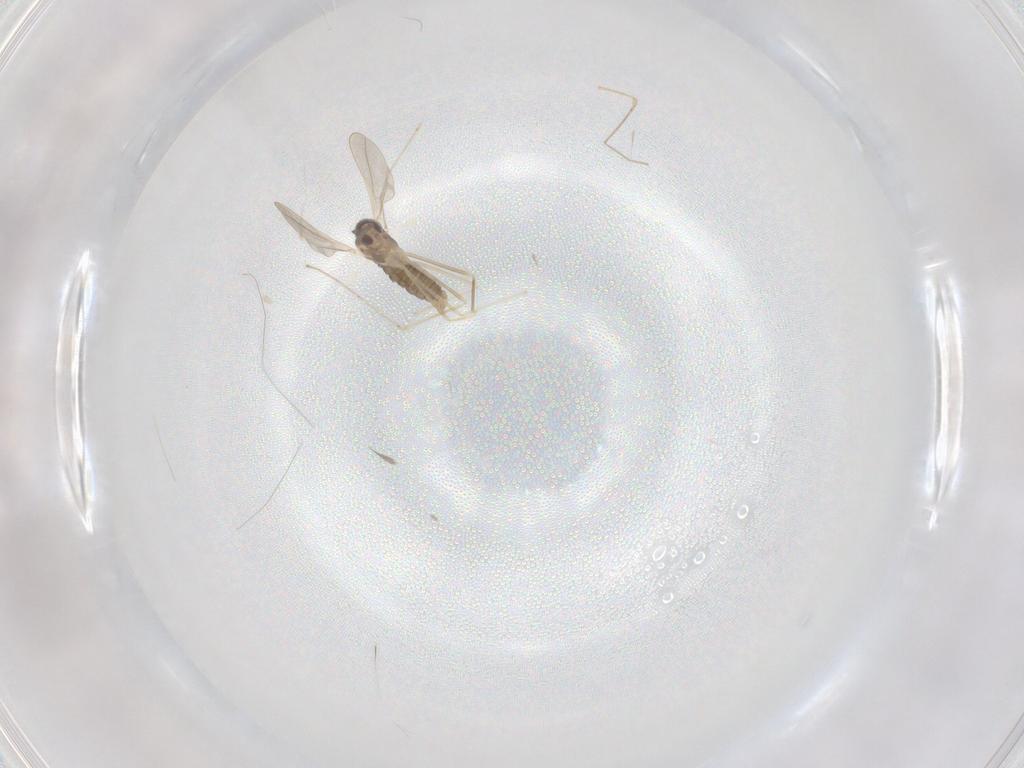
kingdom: Animalia
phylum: Arthropoda
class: Insecta
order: Diptera
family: Cecidomyiidae
